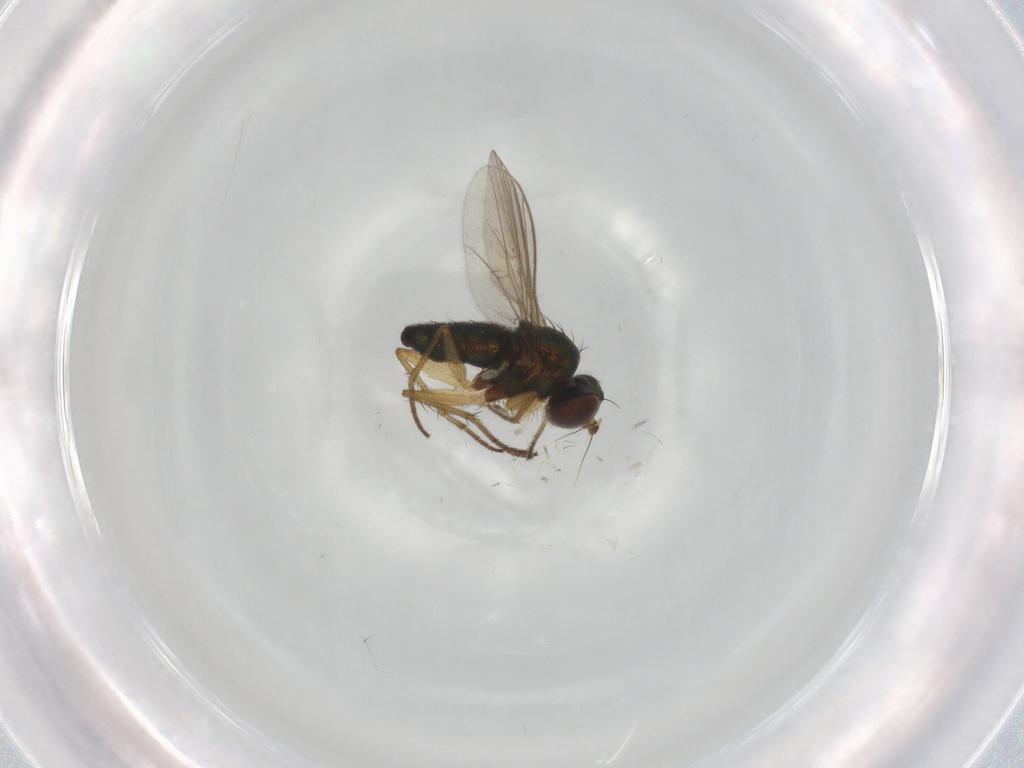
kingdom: Animalia
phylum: Arthropoda
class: Insecta
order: Diptera
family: Dolichopodidae
